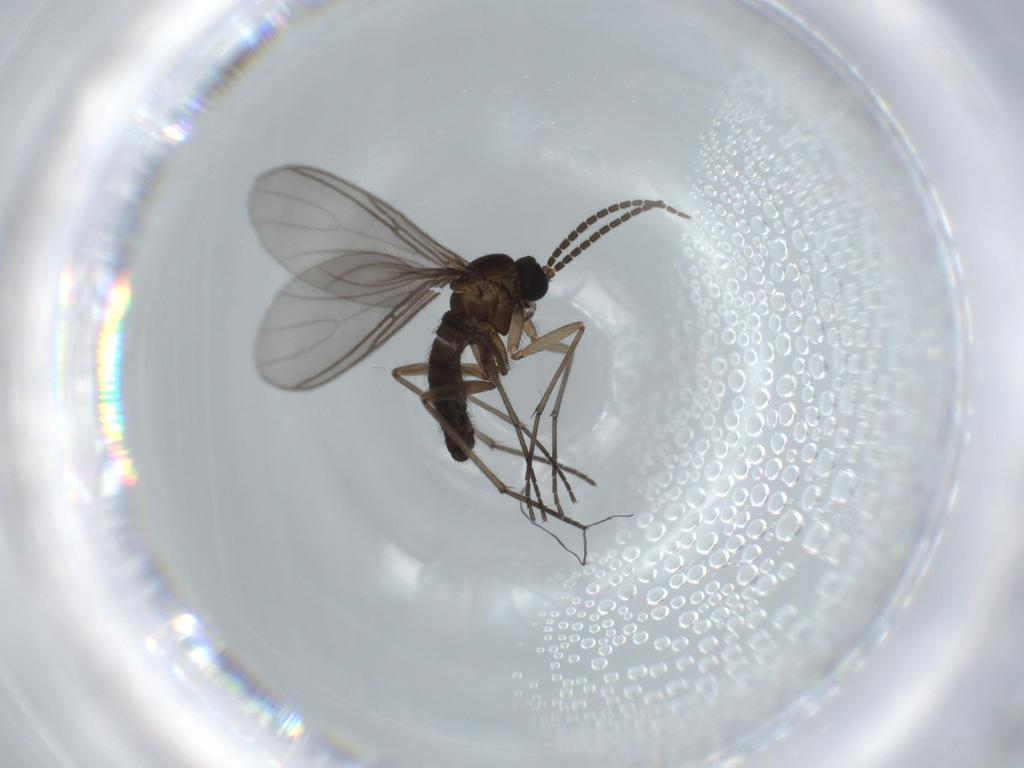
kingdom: Animalia
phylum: Arthropoda
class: Insecta
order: Diptera
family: Sciaridae
